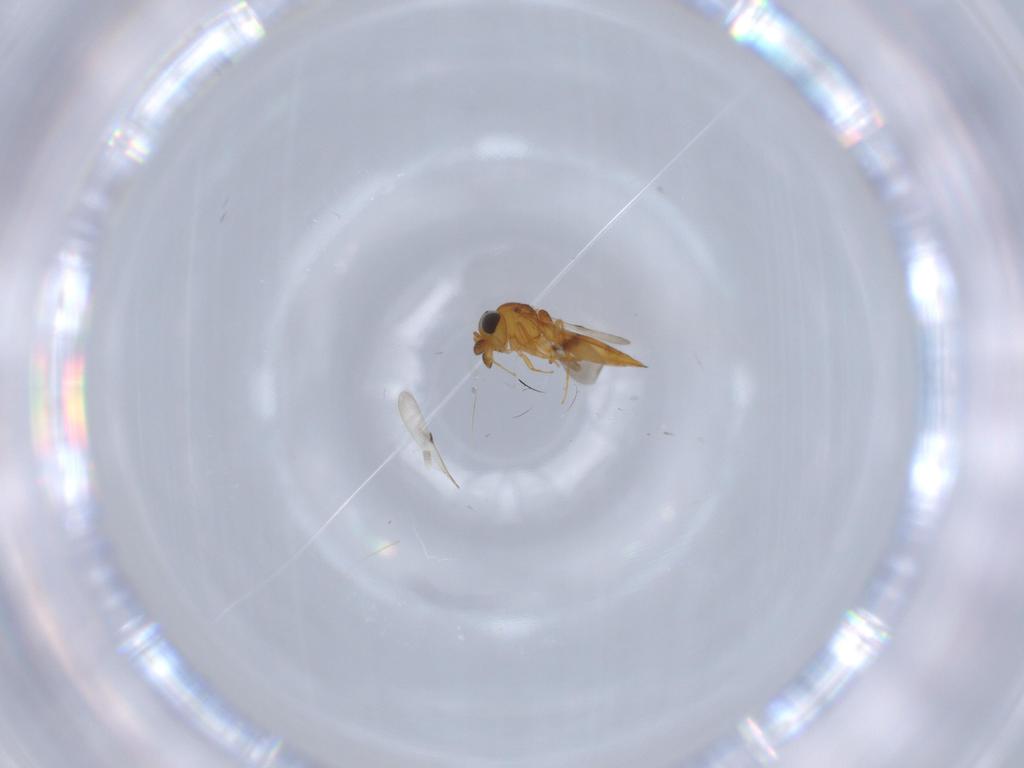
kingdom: Animalia
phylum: Arthropoda
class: Insecta
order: Hymenoptera
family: Scelionidae
